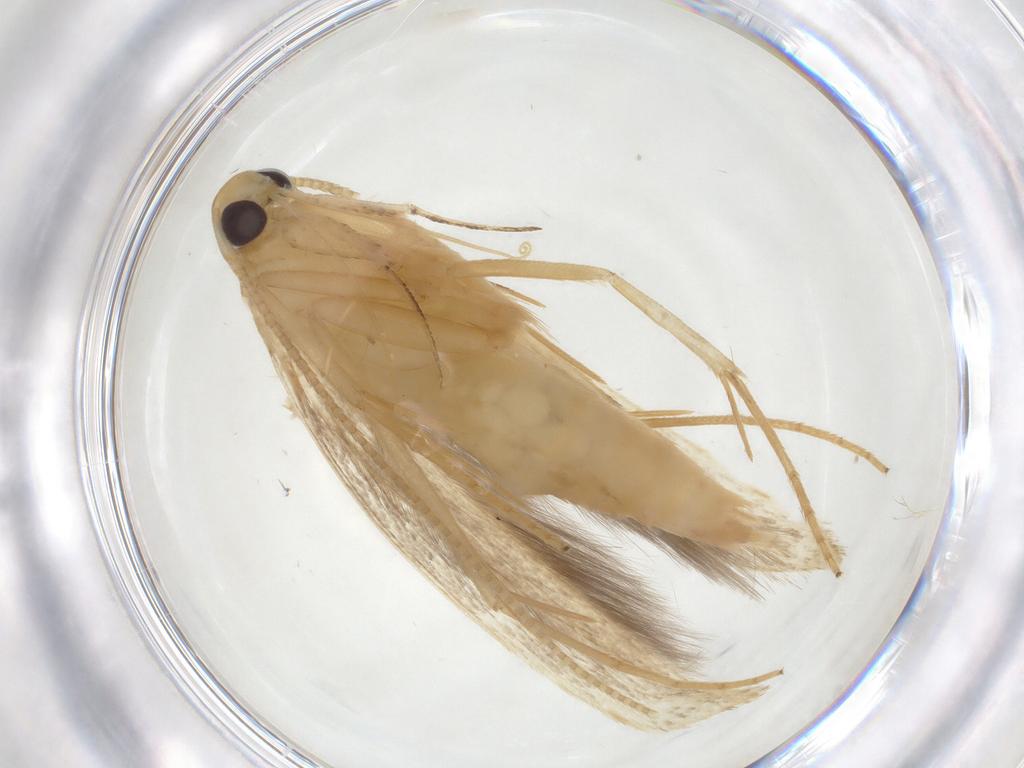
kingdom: Animalia
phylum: Arthropoda
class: Insecta
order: Lepidoptera
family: Coleophoridae
